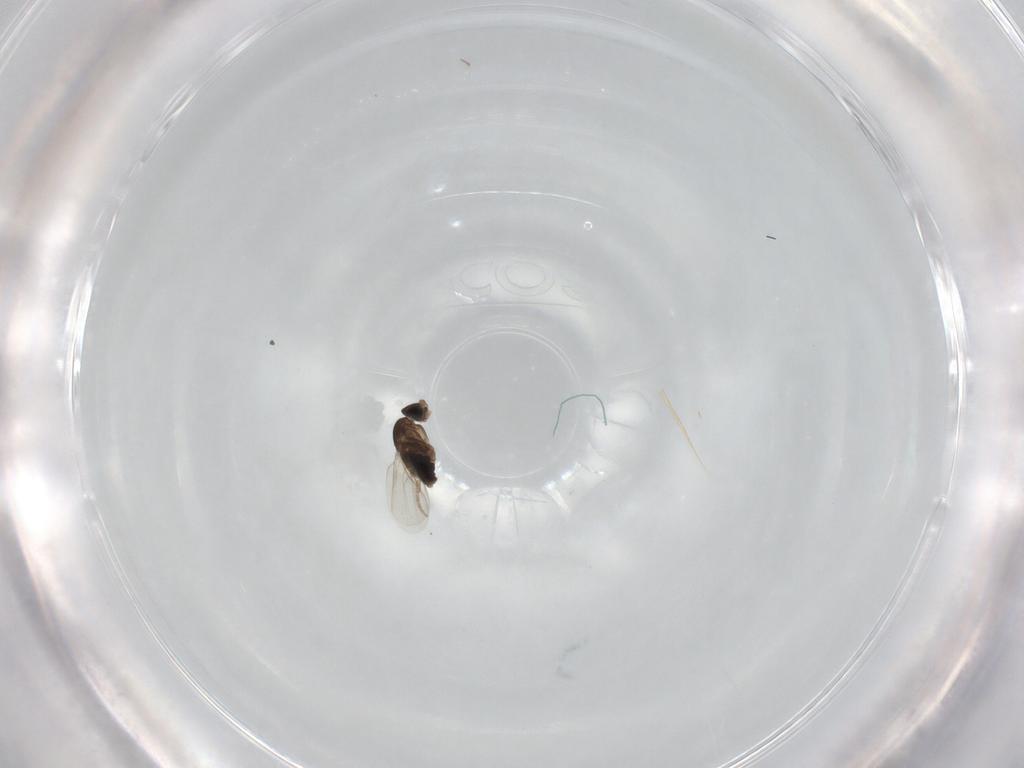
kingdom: Animalia
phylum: Arthropoda
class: Insecta
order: Diptera
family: Phoridae
